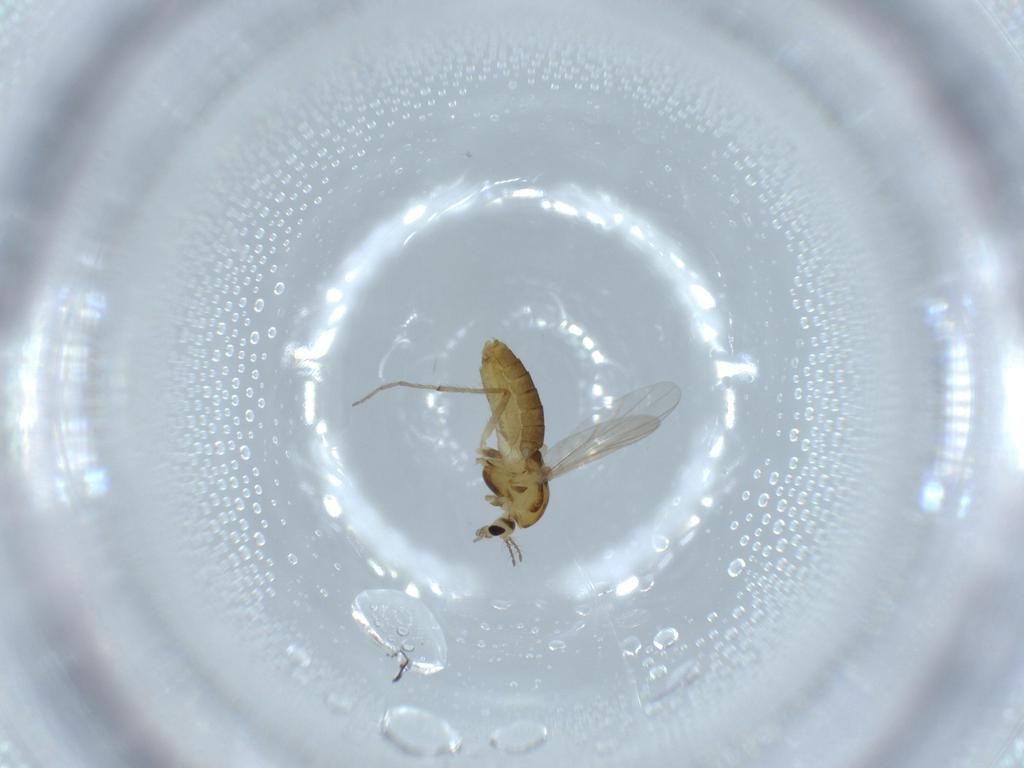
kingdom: Animalia
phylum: Arthropoda
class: Insecta
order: Diptera
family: Chironomidae
